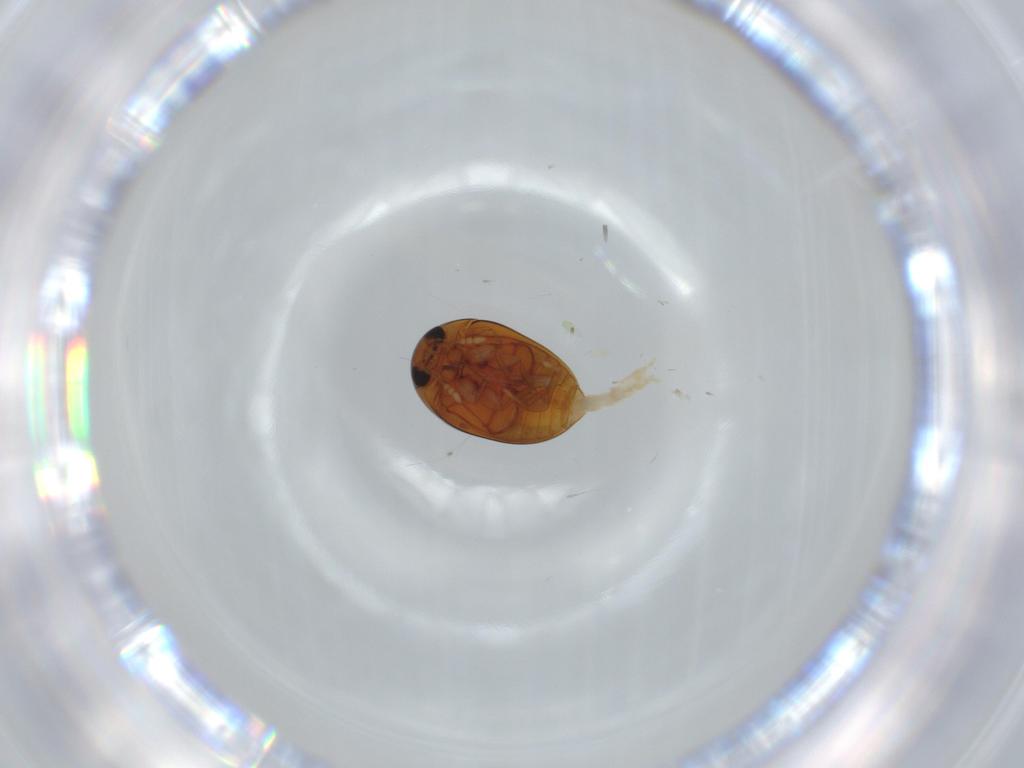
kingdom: Animalia
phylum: Arthropoda
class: Insecta
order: Coleoptera
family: Phalacridae
